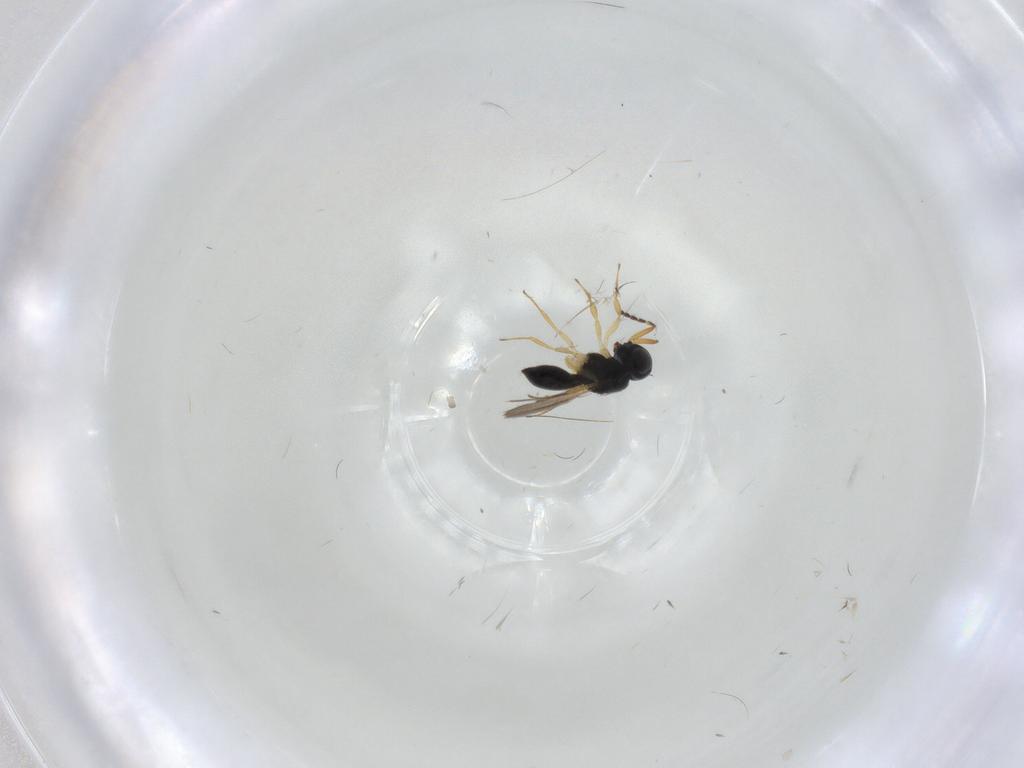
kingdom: Animalia
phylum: Arthropoda
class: Insecta
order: Hymenoptera
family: Scelionidae
